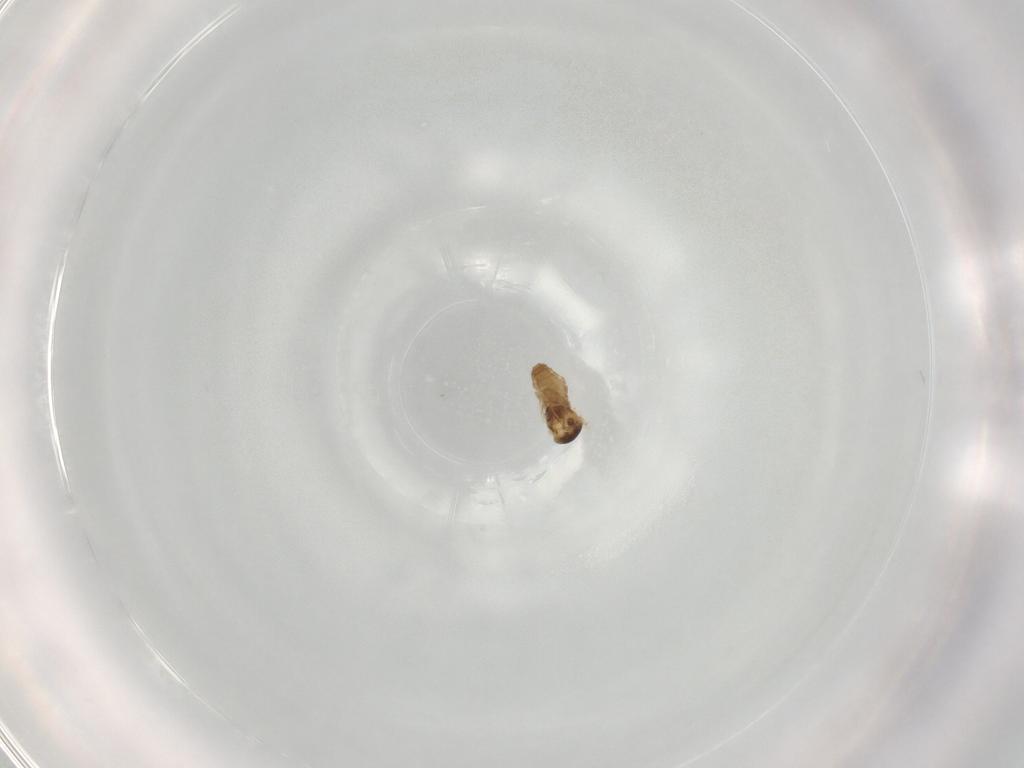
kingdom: Animalia
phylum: Arthropoda
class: Insecta
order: Diptera
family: Ceratopogonidae
